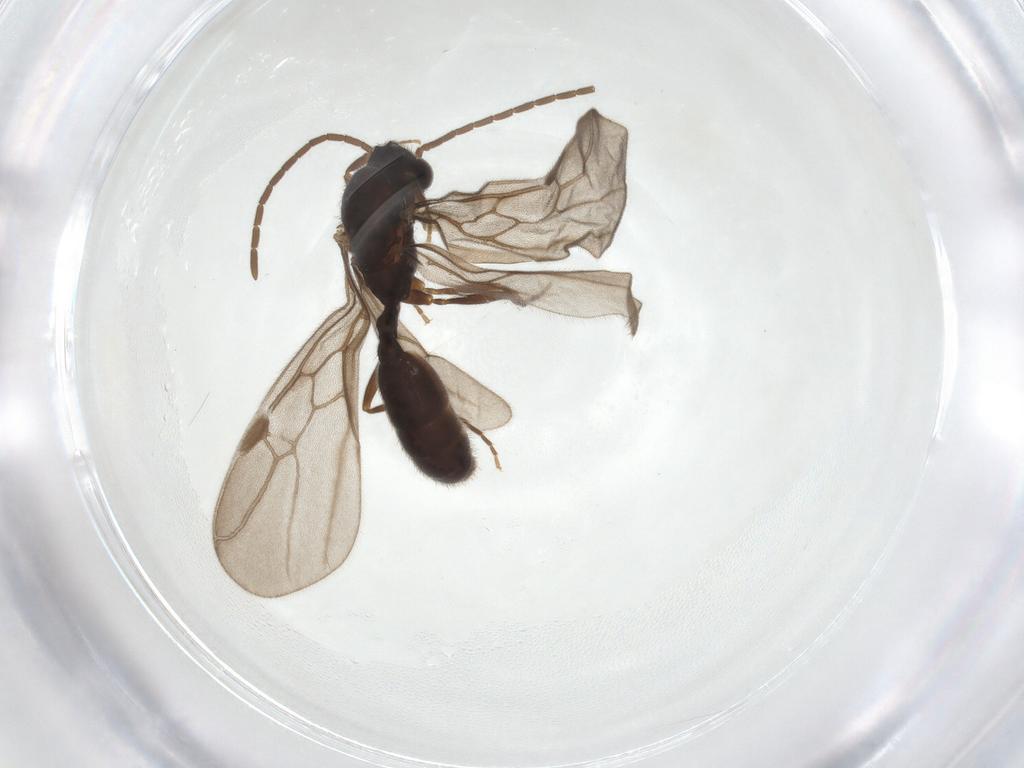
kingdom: Animalia
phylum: Arthropoda
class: Insecta
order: Hymenoptera
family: Formicidae
